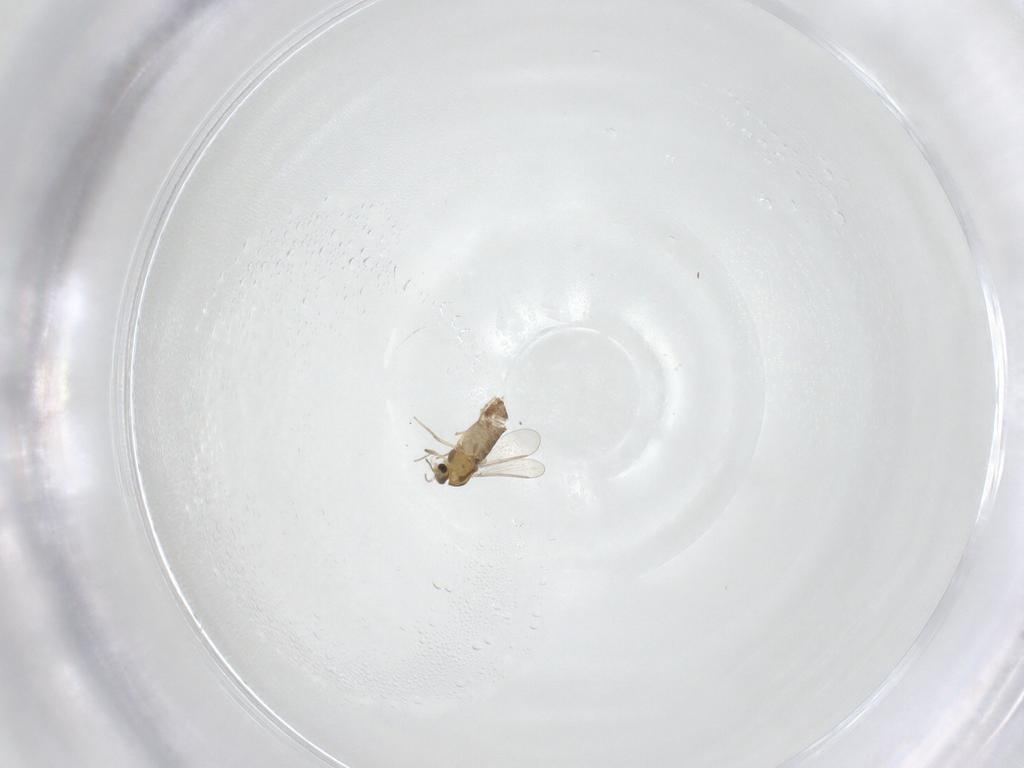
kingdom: Animalia
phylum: Arthropoda
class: Insecta
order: Diptera
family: Chironomidae
